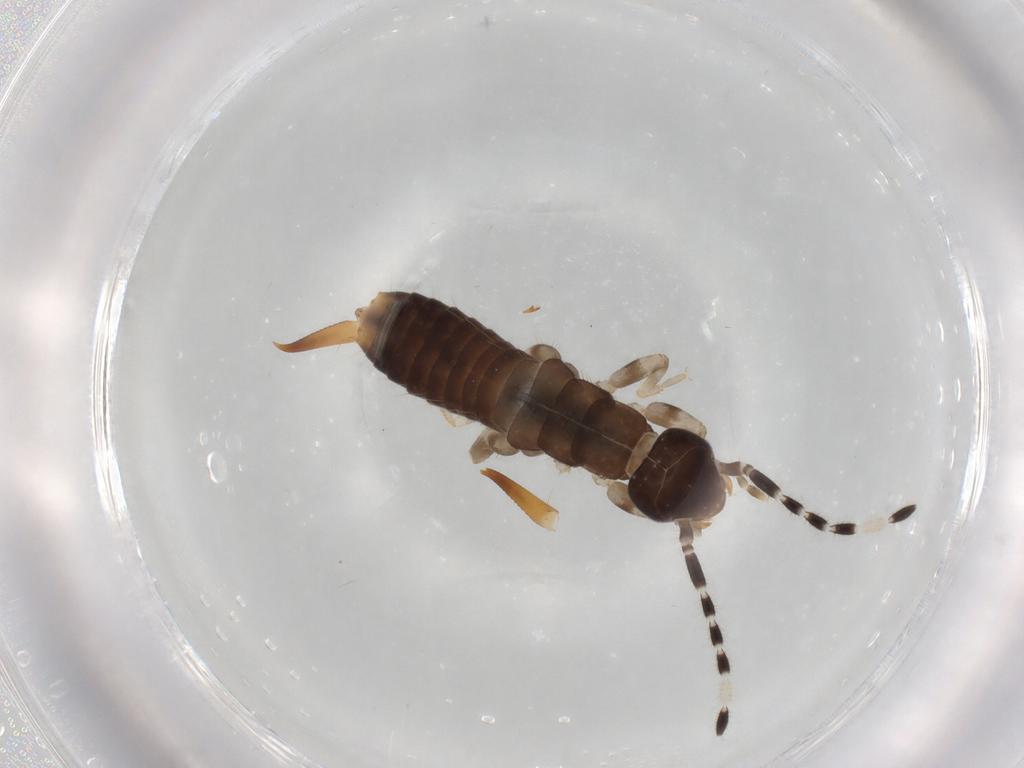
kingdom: Animalia
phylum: Arthropoda
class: Insecta
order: Dermaptera
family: Anisolabididae
